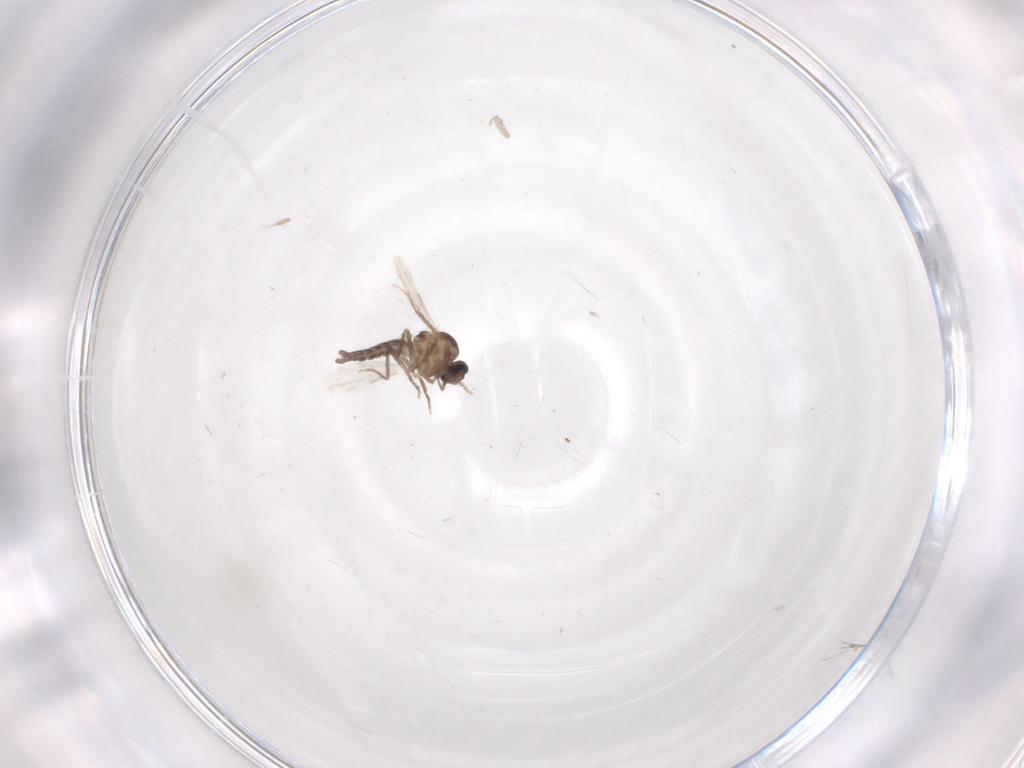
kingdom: Animalia
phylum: Arthropoda
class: Insecta
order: Diptera
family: Ceratopogonidae
